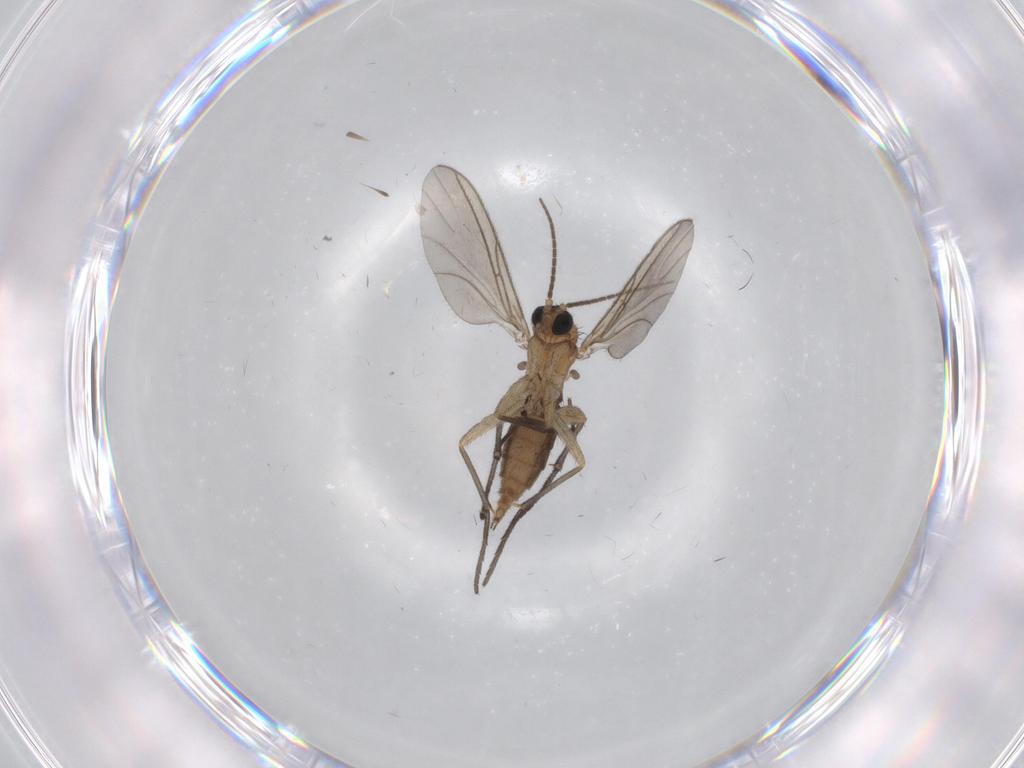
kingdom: Animalia
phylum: Arthropoda
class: Insecta
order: Diptera
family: Sciaridae
